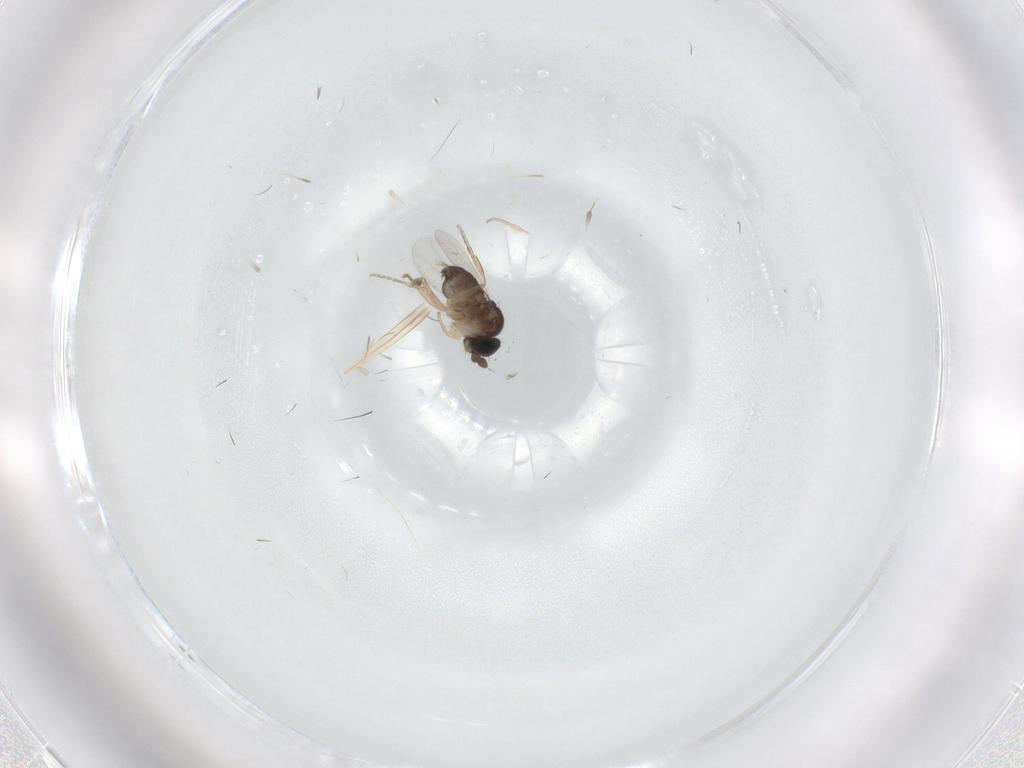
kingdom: Animalia
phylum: Arthropoda
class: Insecta
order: Diptera
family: Phoridae
